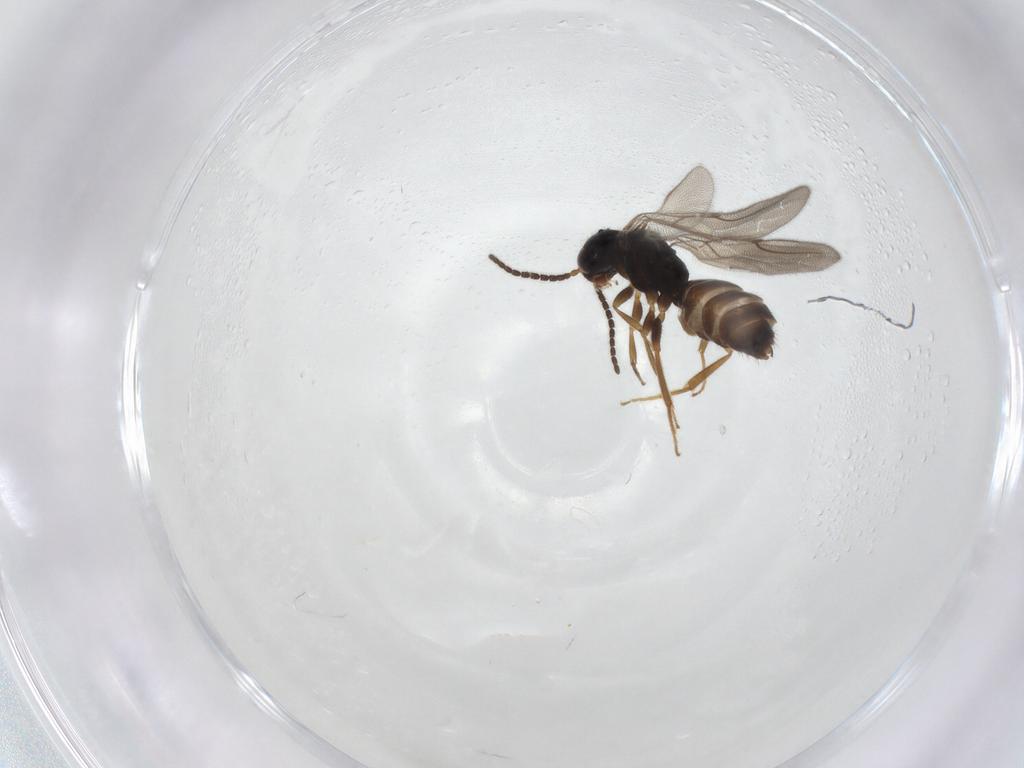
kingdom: Animalia
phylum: Arthropoda
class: Insecta
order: Hymenoptera
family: Bethylidae
